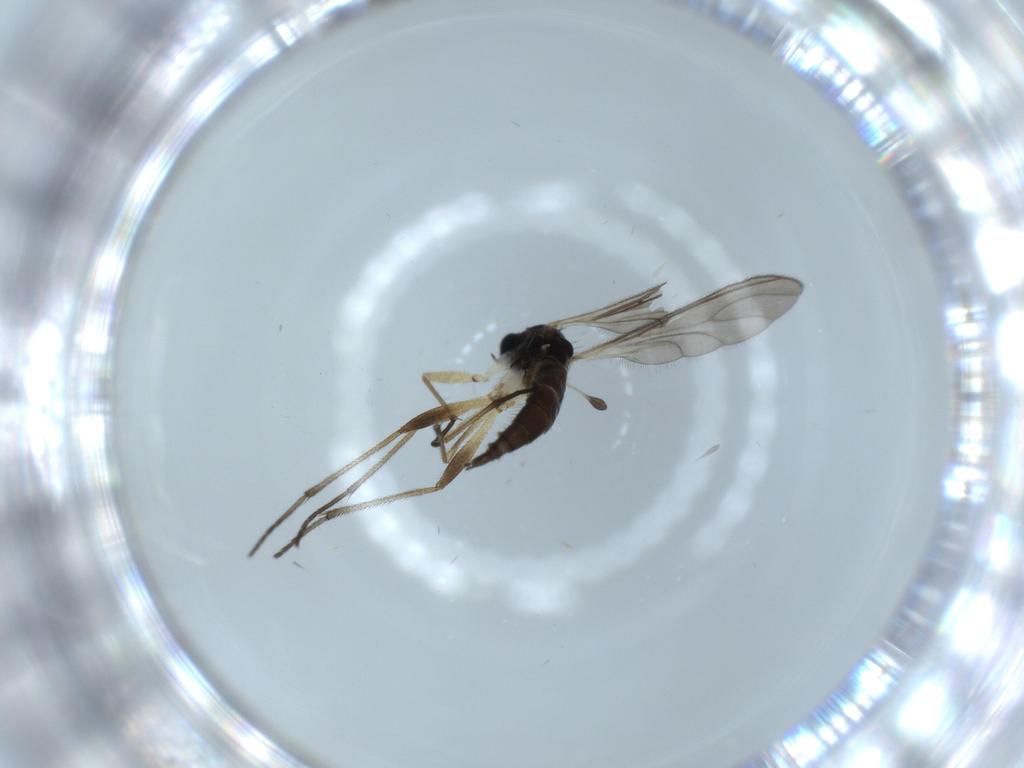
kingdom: Animalia
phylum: Arthropoda
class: Insecta
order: Diptera
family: Sciaridae
